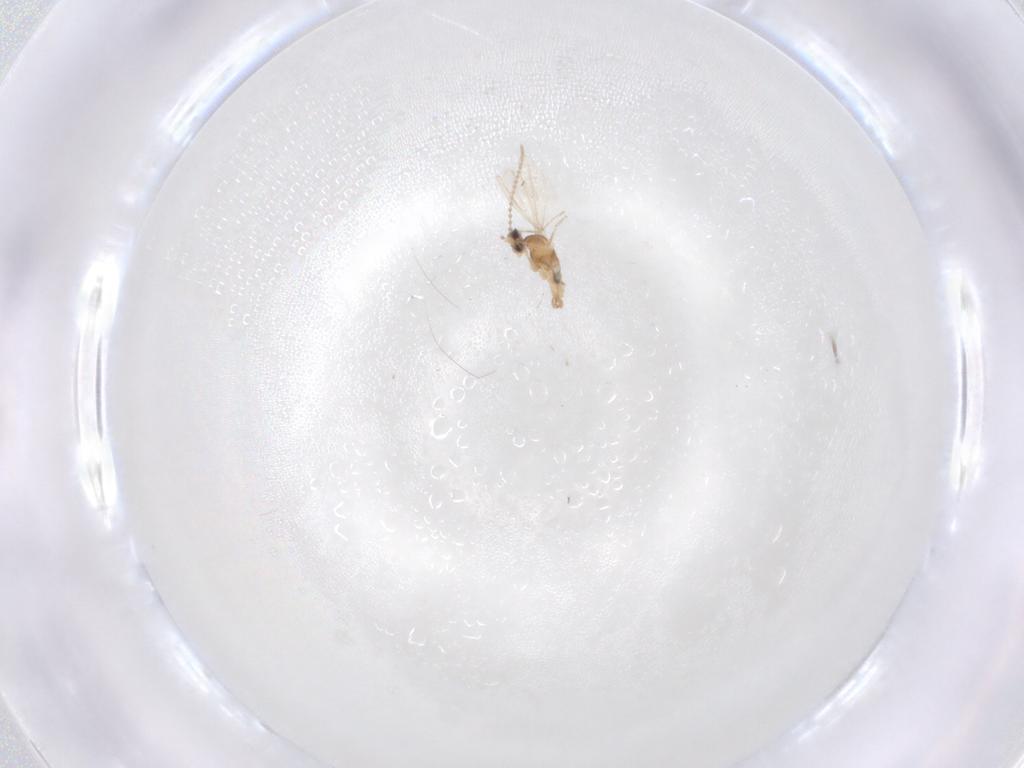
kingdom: Animalia
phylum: Arthropoda
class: Insecta
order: Diptera
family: Cecidomyiidae
